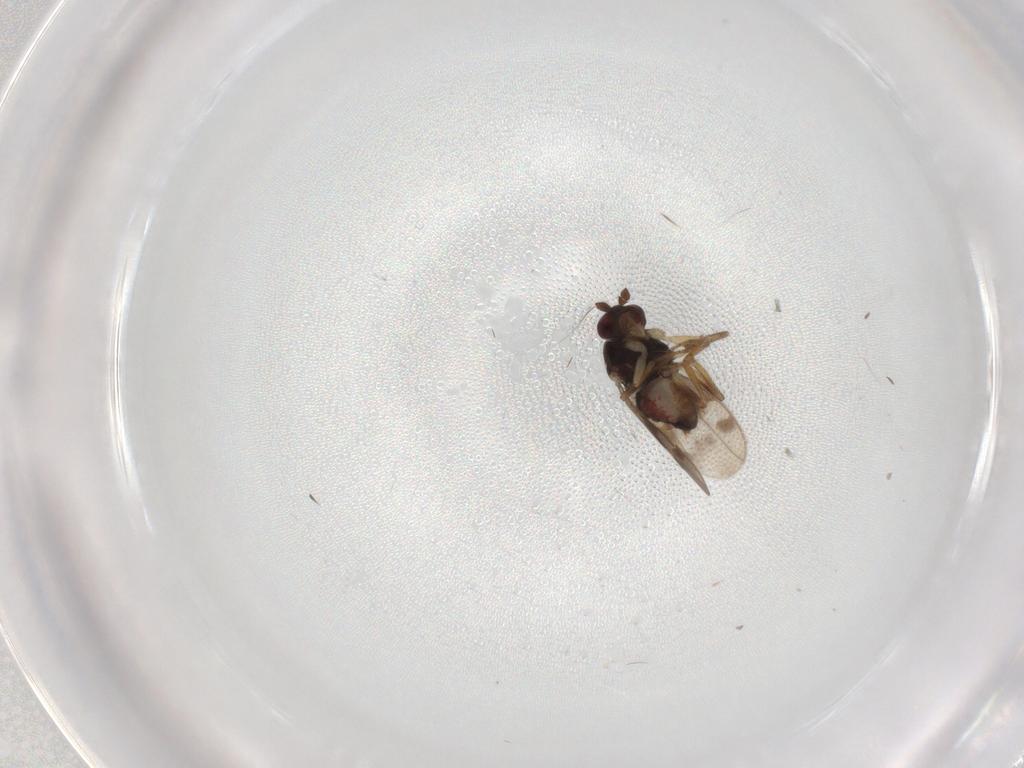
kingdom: Animalia
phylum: Arthropoda
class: Insecta
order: Diptera
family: Sphaeroceridae
